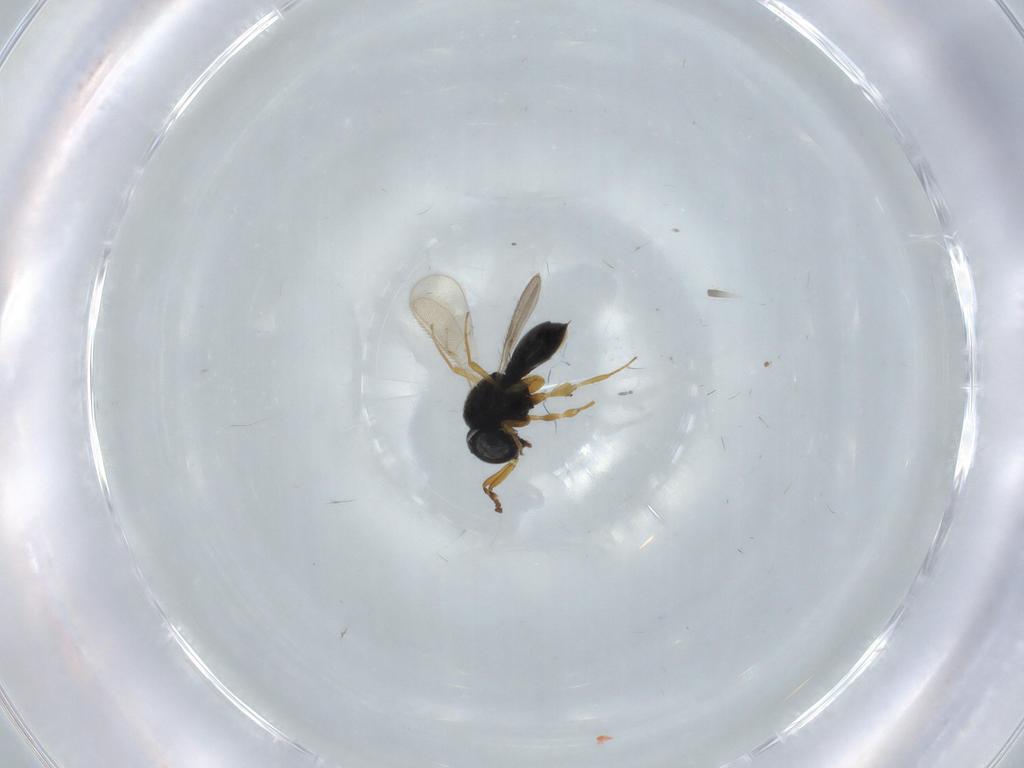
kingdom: Animalia
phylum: Arthropoda
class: Insecta
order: Hymenoptera
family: Scelionidae
